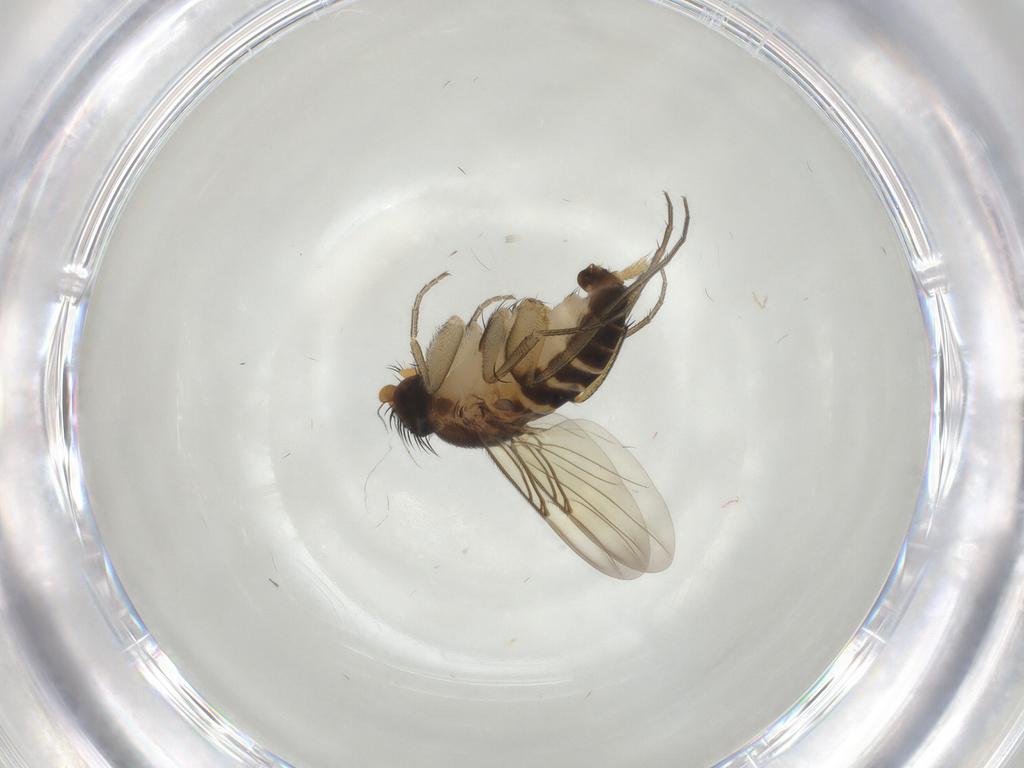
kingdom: Animalia
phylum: Arthropoda
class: Insecta
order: Diptera
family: Phoridae
